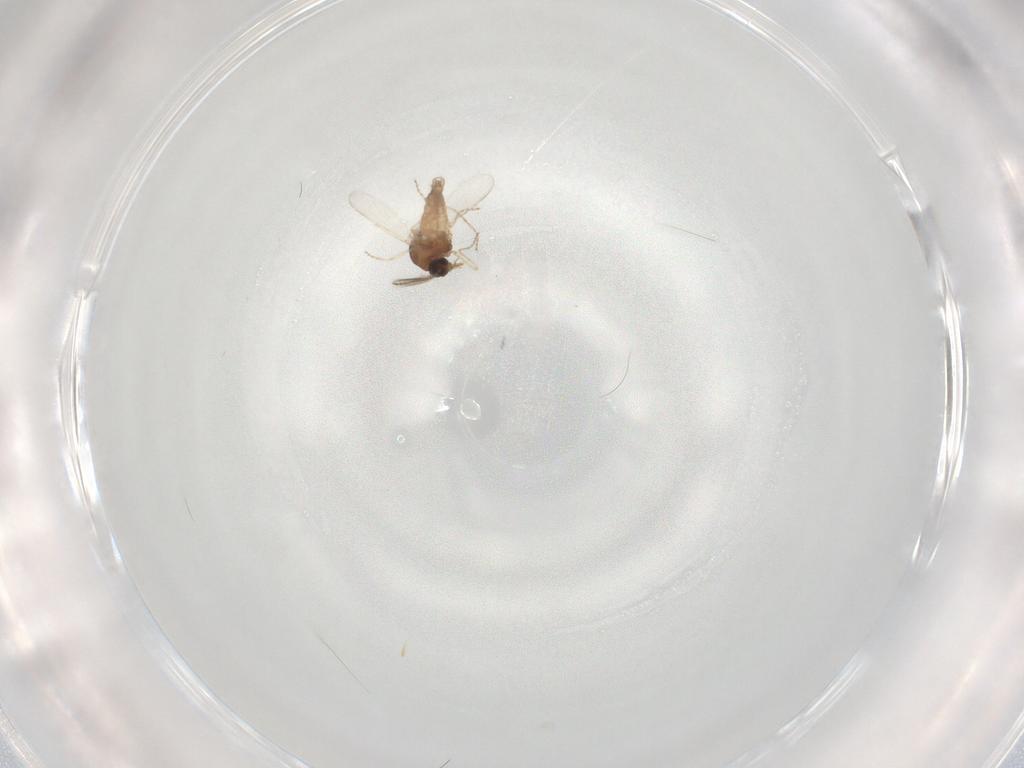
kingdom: Animalia
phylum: Arthropoda
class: Insecta
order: Diptera
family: Ceratopogonidae
